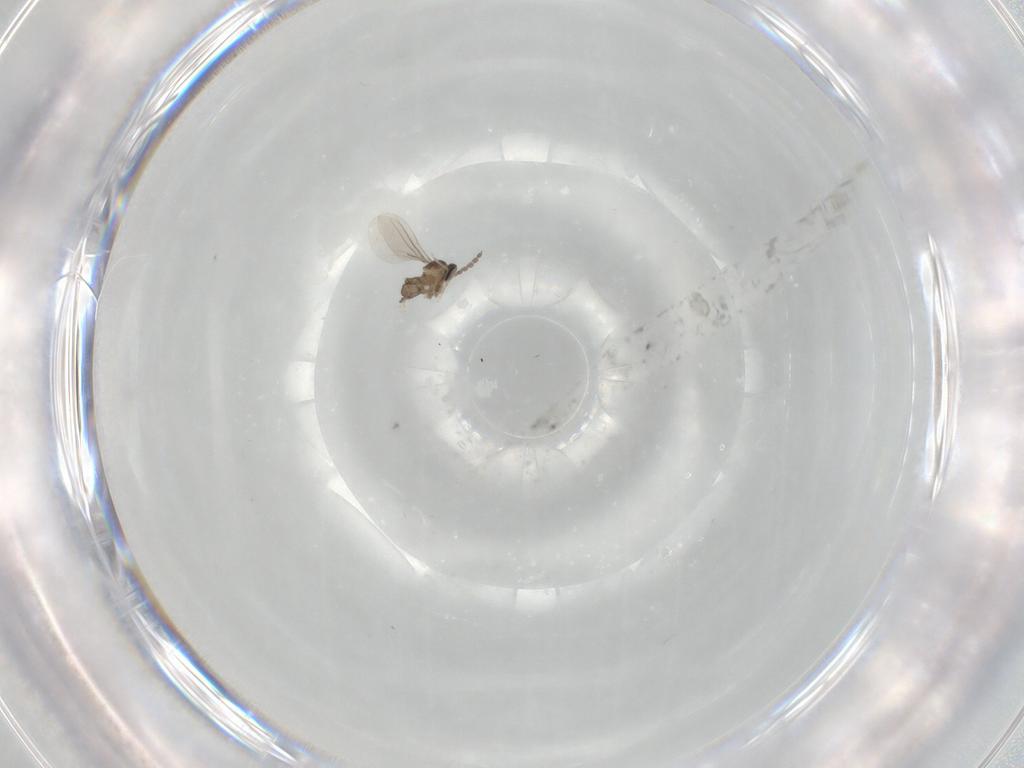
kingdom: Animalia
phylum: Arthropoda
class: Insecta
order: Diptera
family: Cecidomyiidae
